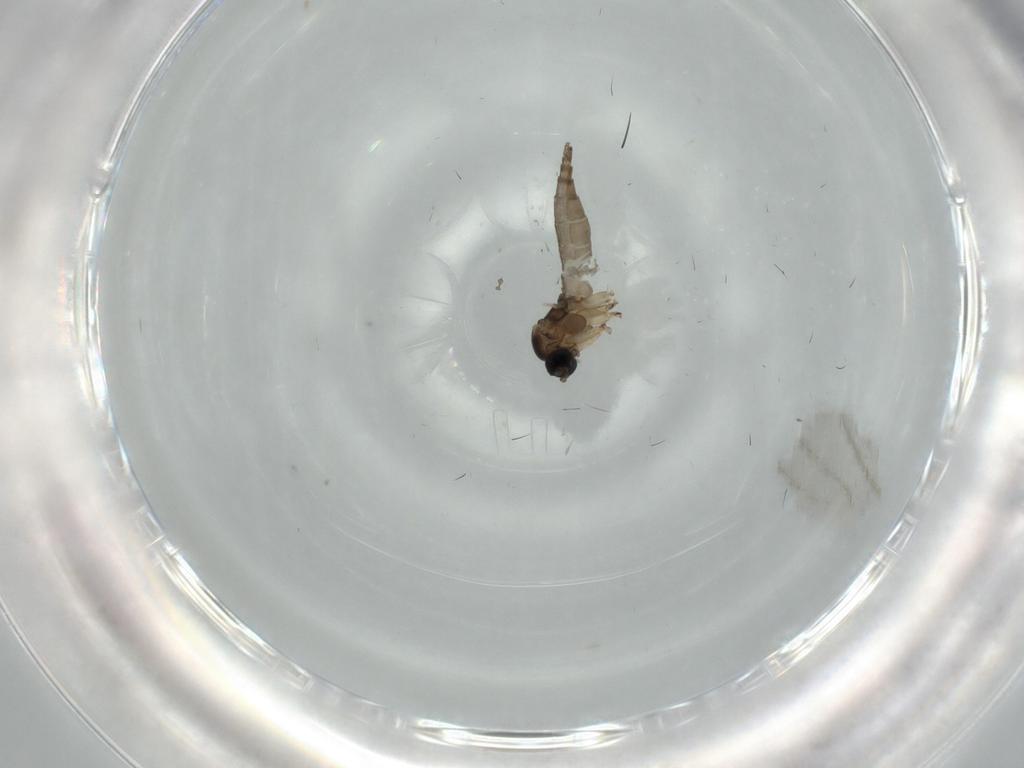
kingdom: Animalia
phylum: Arthropoda
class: Insecta
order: Diptera
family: Sciaridae
